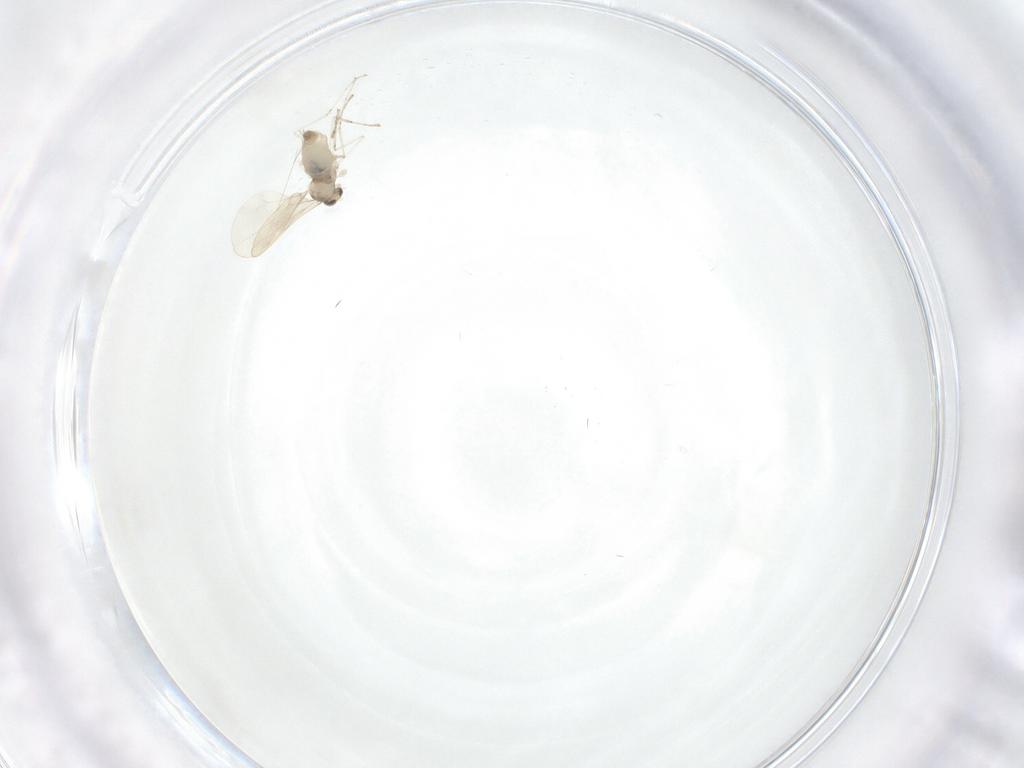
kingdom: Animalia
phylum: Arthropoda
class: Insecta
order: Diptera
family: Cecidomyiidae
